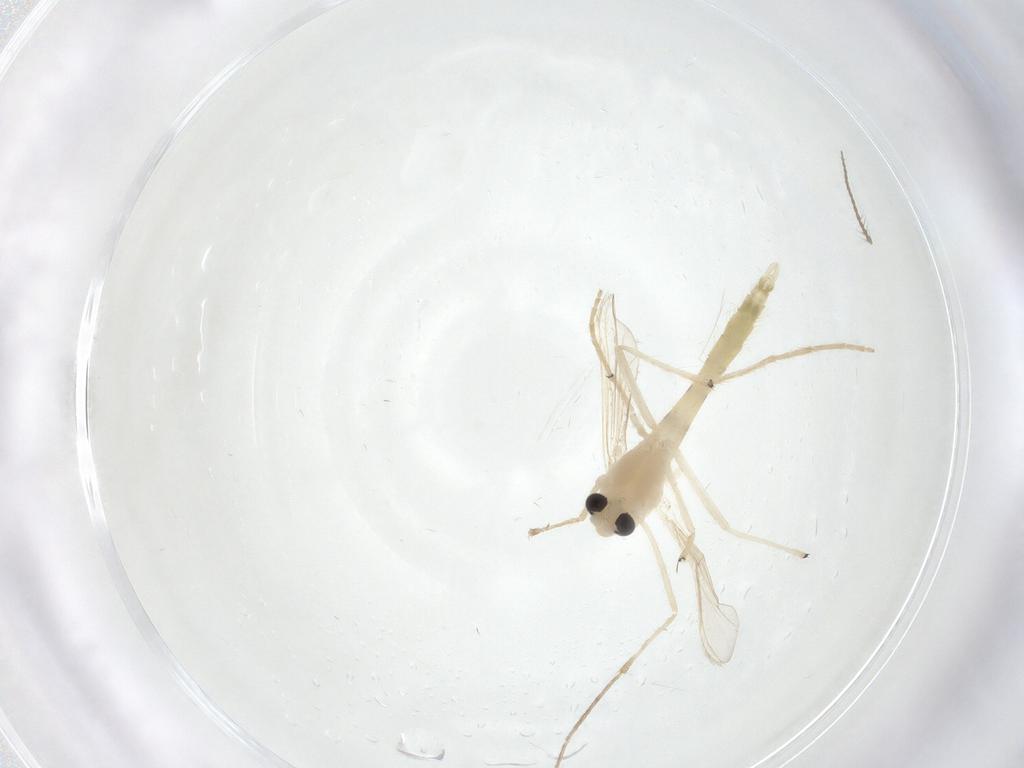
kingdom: Animalia
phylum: Arthropoda
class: Insecta
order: Diptera
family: Chironomidae
